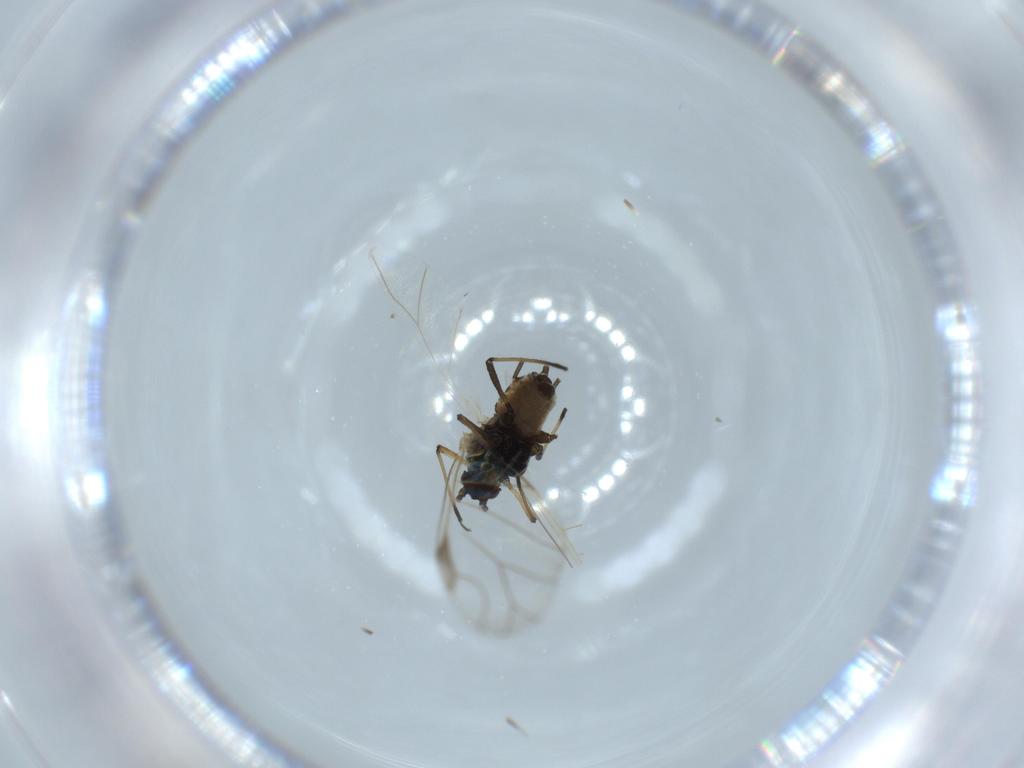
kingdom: Animalia
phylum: Arthropoda
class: Insecta
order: Hemiptera
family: Aphididae
